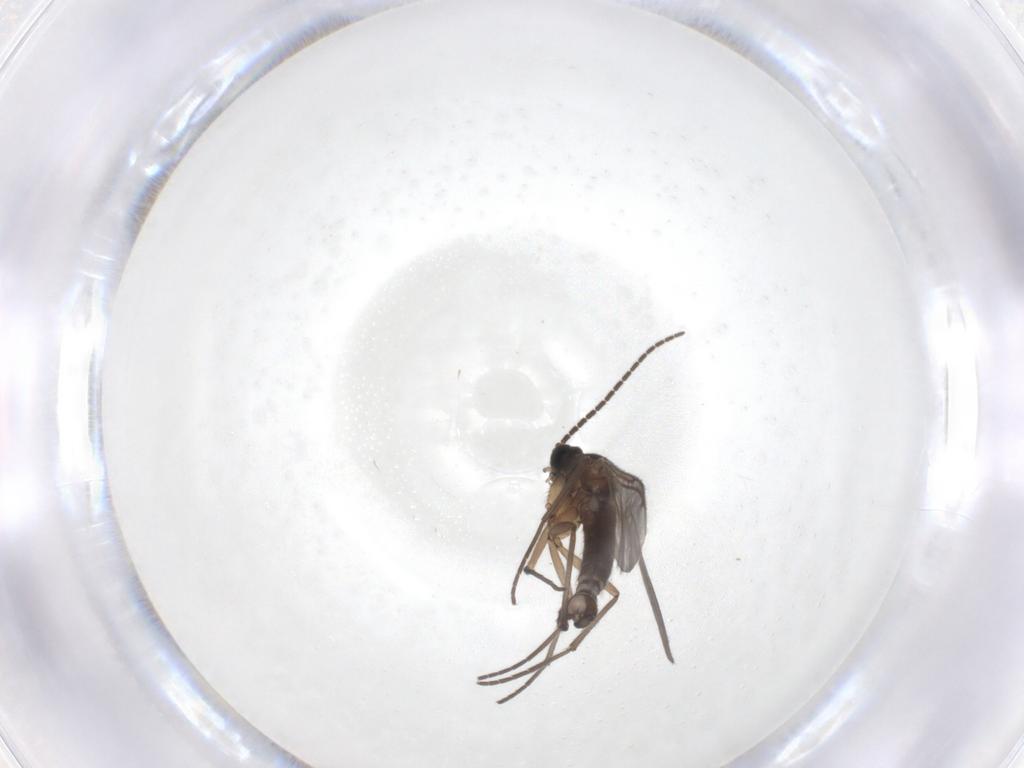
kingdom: Animalia
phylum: Arthropoda
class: Insecta
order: Diptera
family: Sciaridae
